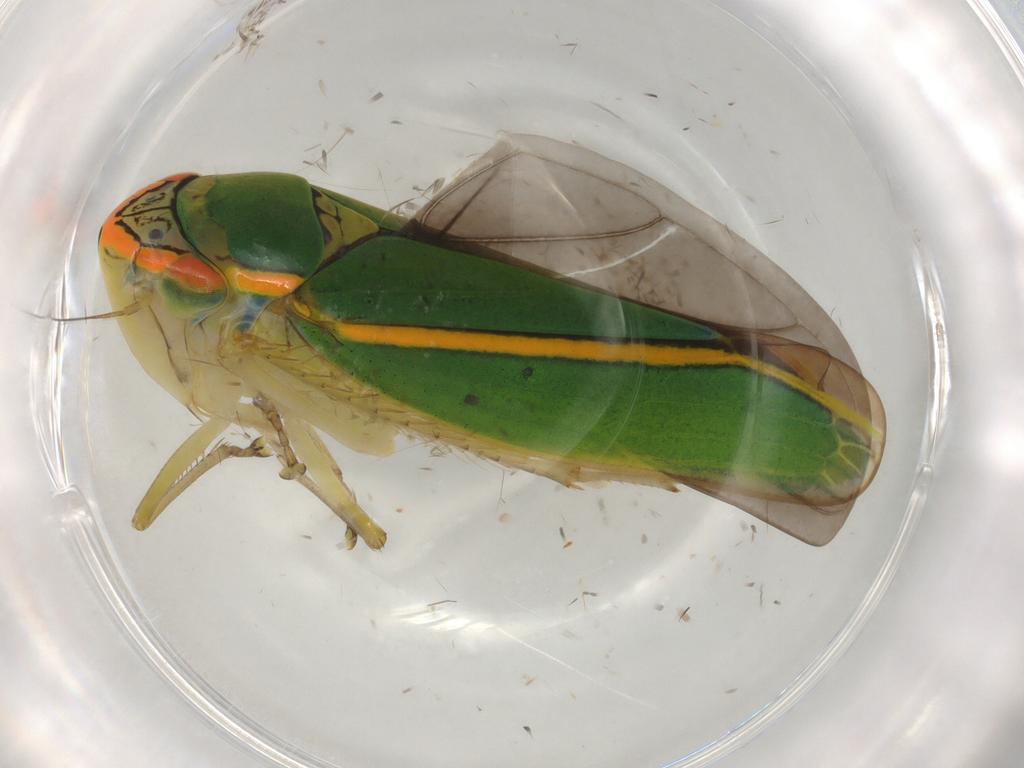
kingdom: Animalia
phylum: Arthropoda
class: Insecta
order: Hemiptera
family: Cicadellidae
